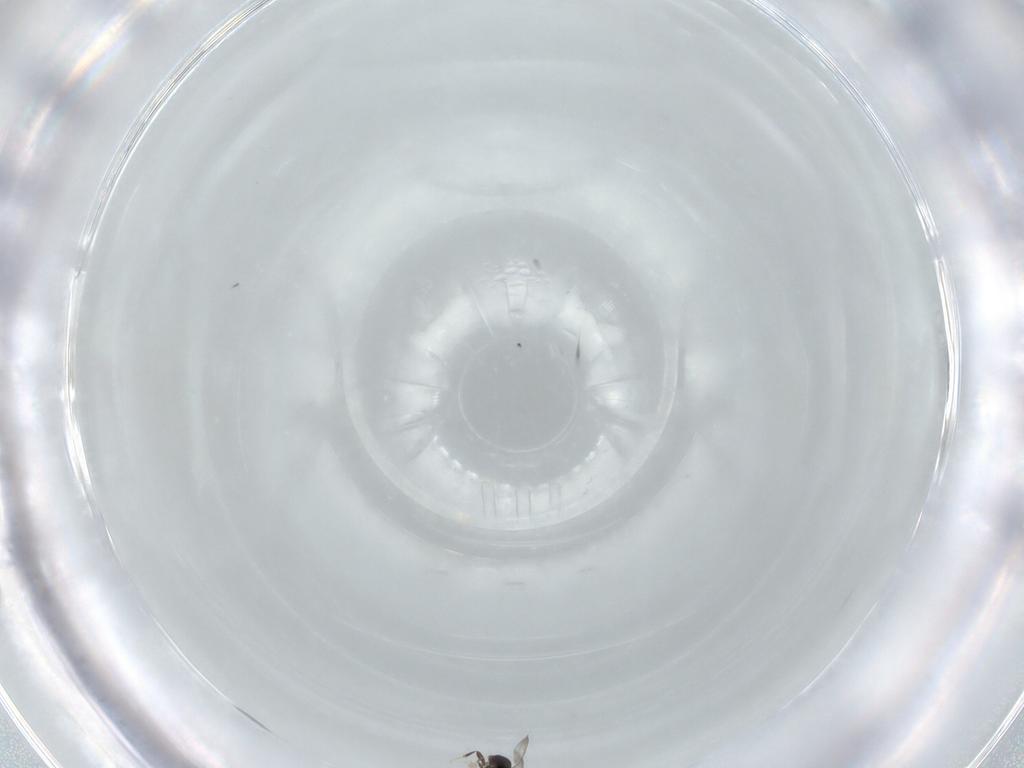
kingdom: Animalia
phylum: Arthropoda
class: Insecta
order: Hymenoptera
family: Formicidae
